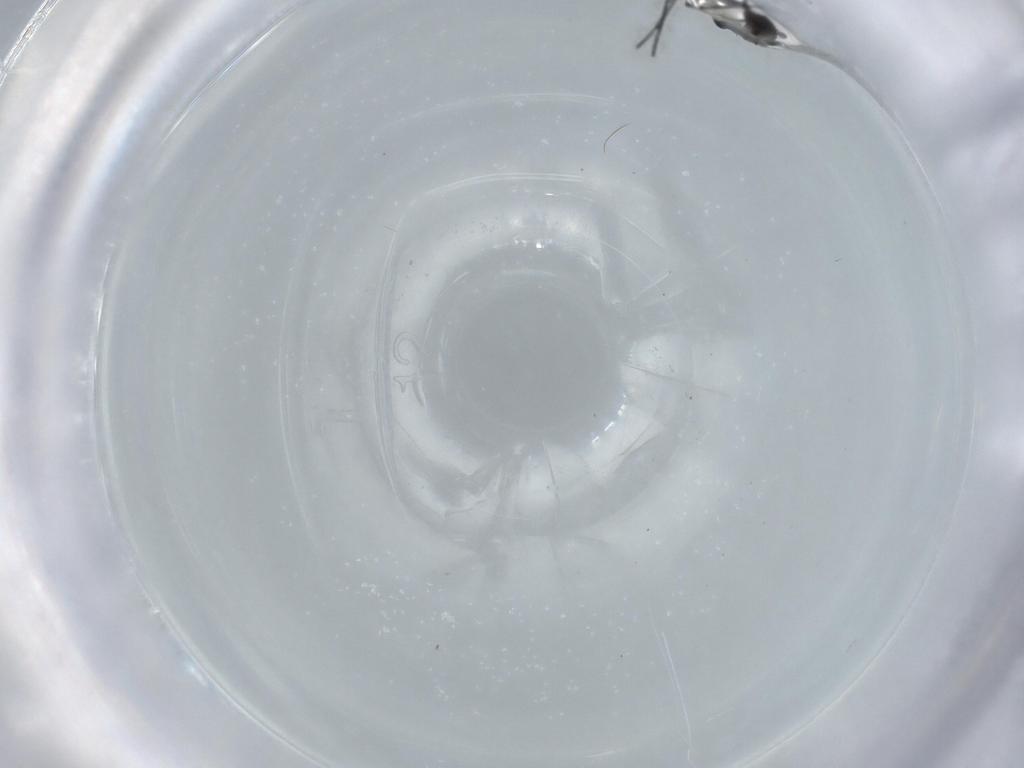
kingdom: Animalia
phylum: Arthropoda
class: Insecta
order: Diptera
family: Sciaridae
